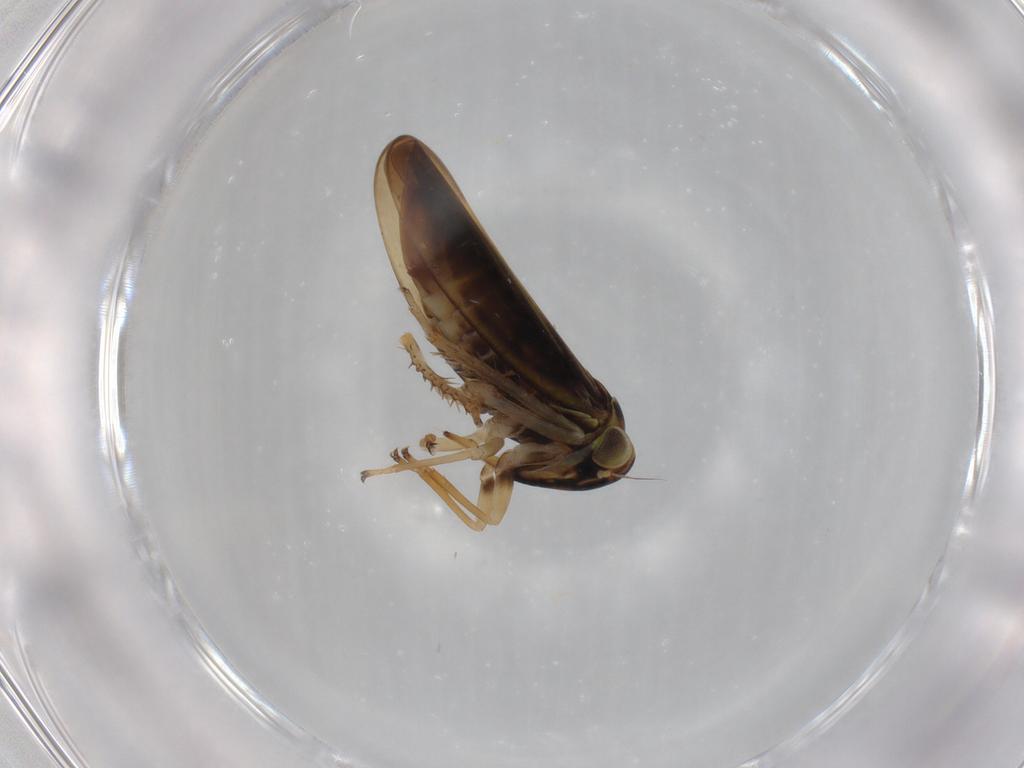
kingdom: Animalia
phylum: Arthropoda
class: Insecta
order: Hemiptera
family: Cicadellidae
